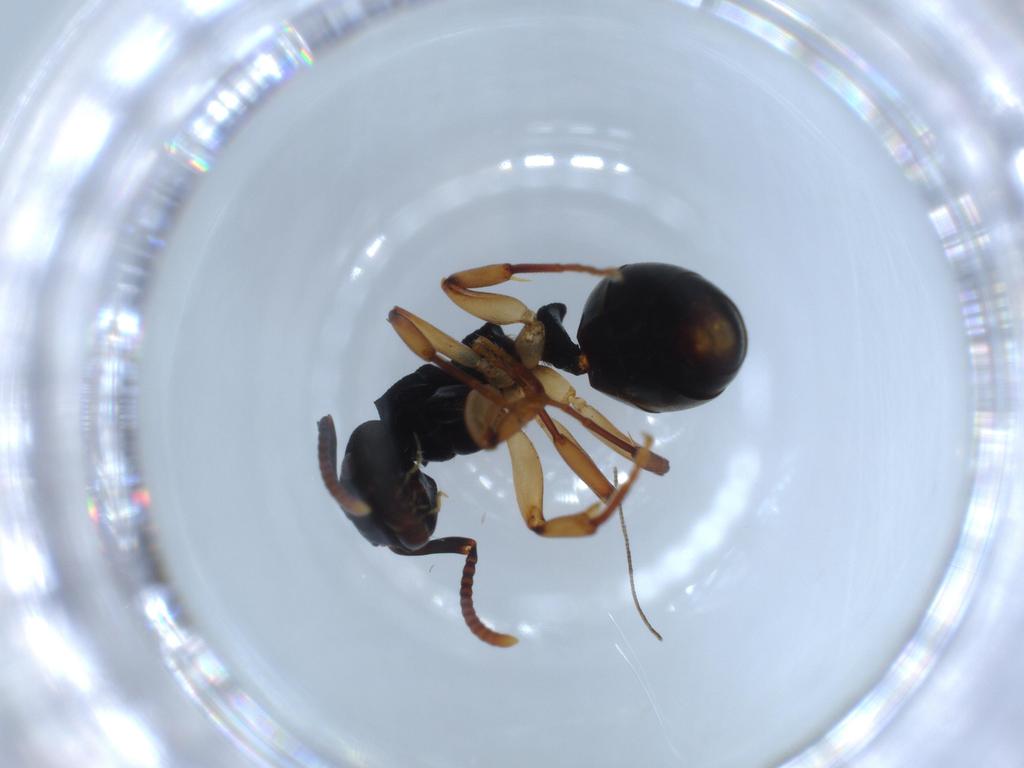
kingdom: Animalia
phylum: Arthropoda
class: Insecta
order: Hymenoptera
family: Formicidae
